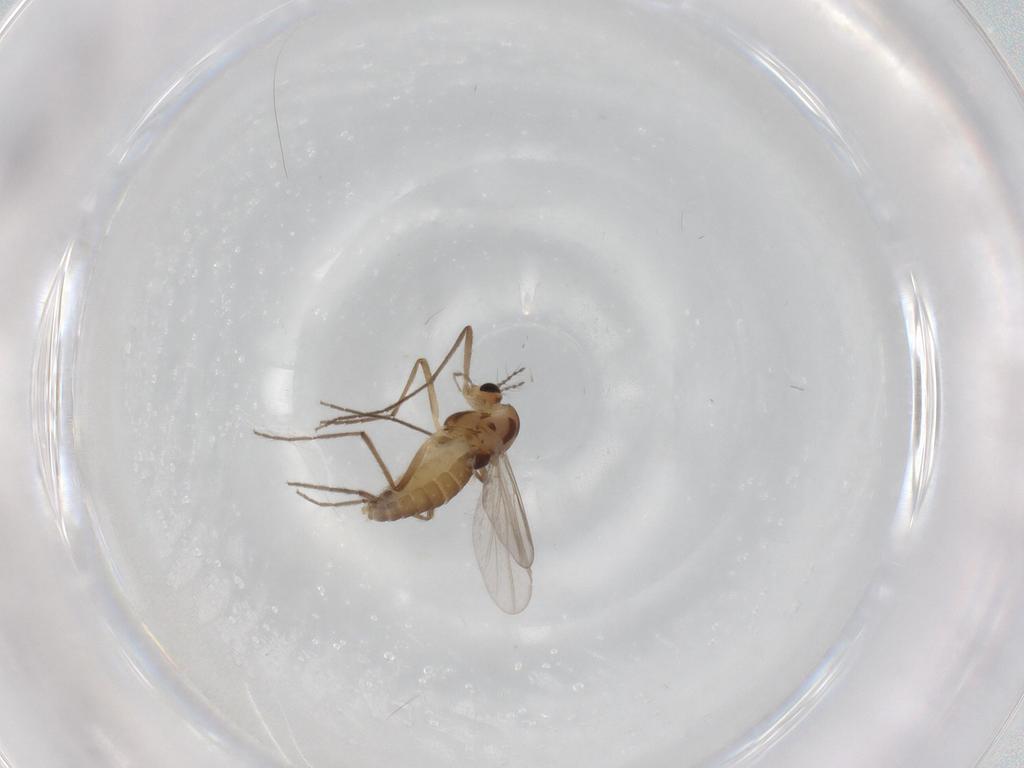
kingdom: Animalia
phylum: Arthropoda
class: Insecta
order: Diptera
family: Chironomidae
